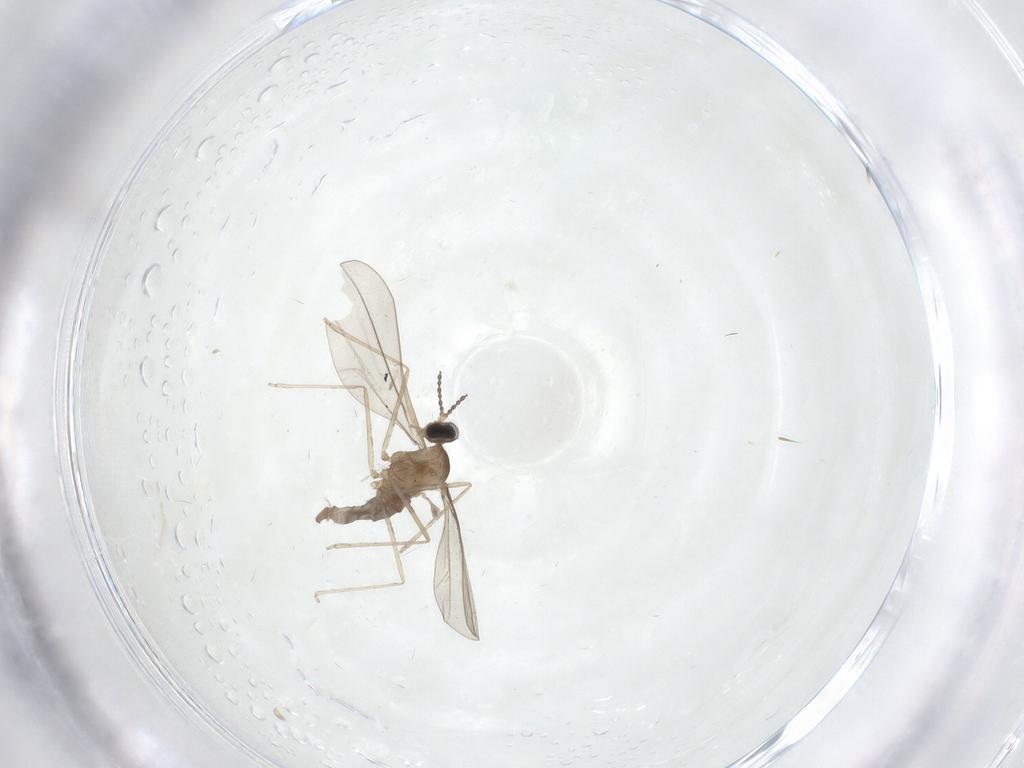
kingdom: Animalia
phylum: Arthropoda
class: Insecta
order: Diptera
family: Cecidomyiidae
